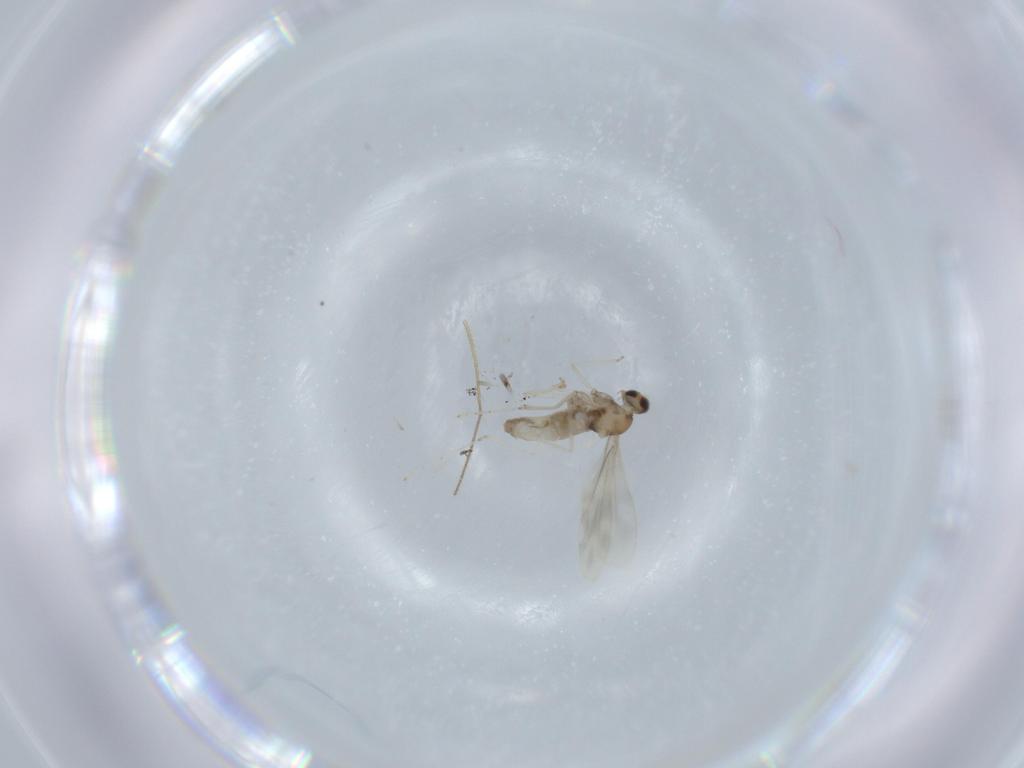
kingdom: Animalia
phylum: Arthropoda
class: Insecta
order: Diptera
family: Cecidomyiidae
